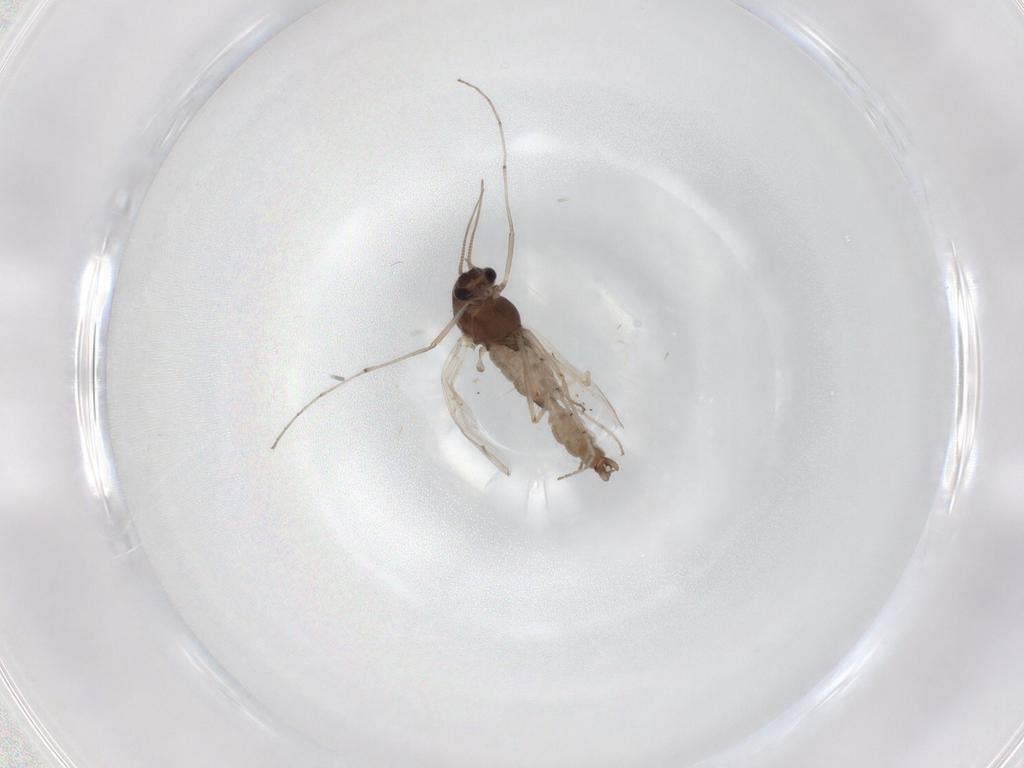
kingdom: Animalia
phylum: Arthropoda
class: Insecta
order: Diptera
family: Chironomidae
